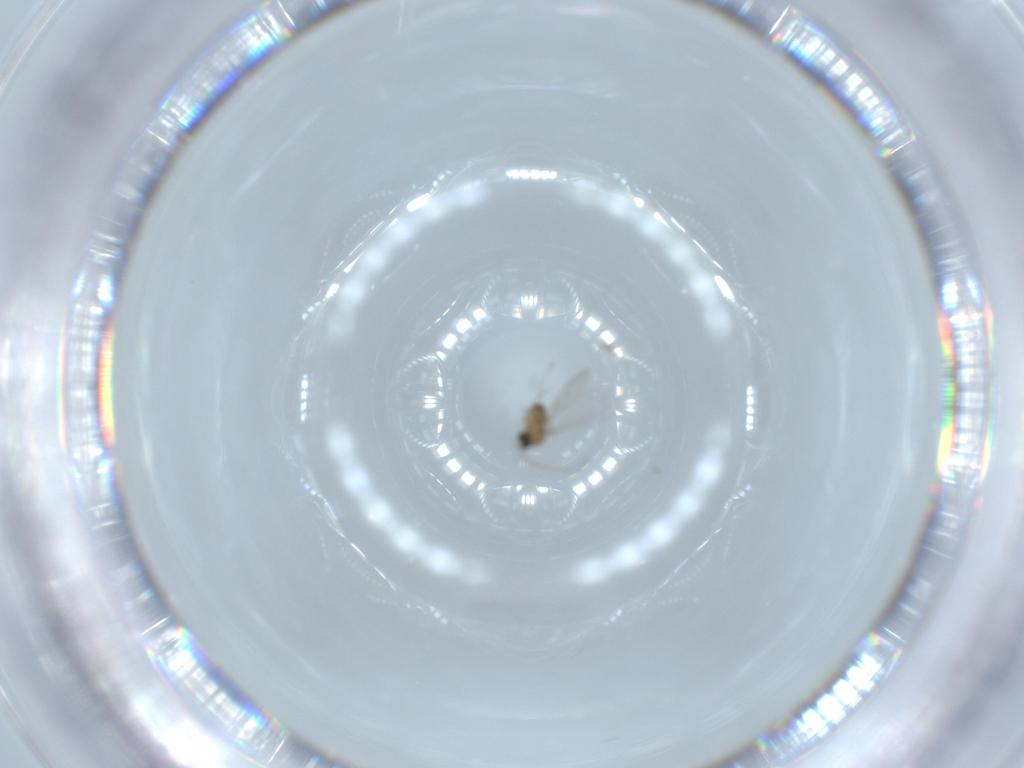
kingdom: Animalia
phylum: Arthropoda
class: Insecta
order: Diptera
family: Cecidomyiidae
